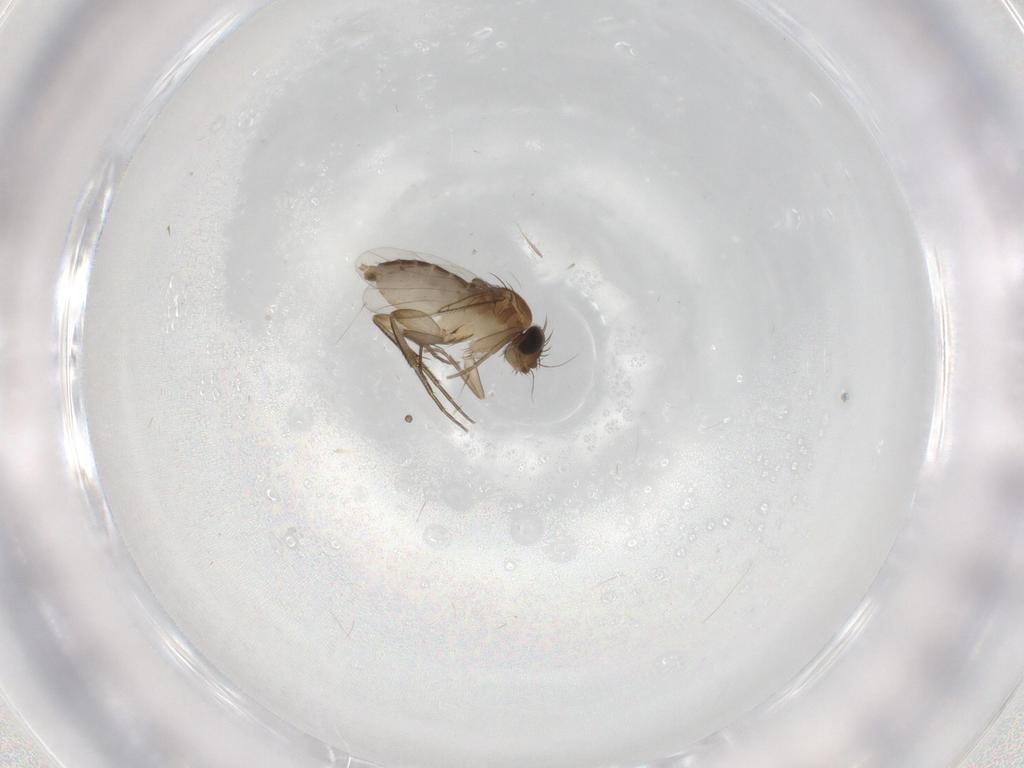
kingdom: Animalia
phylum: Arthropoda
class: Insecta
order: Diptera
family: Phoridae
